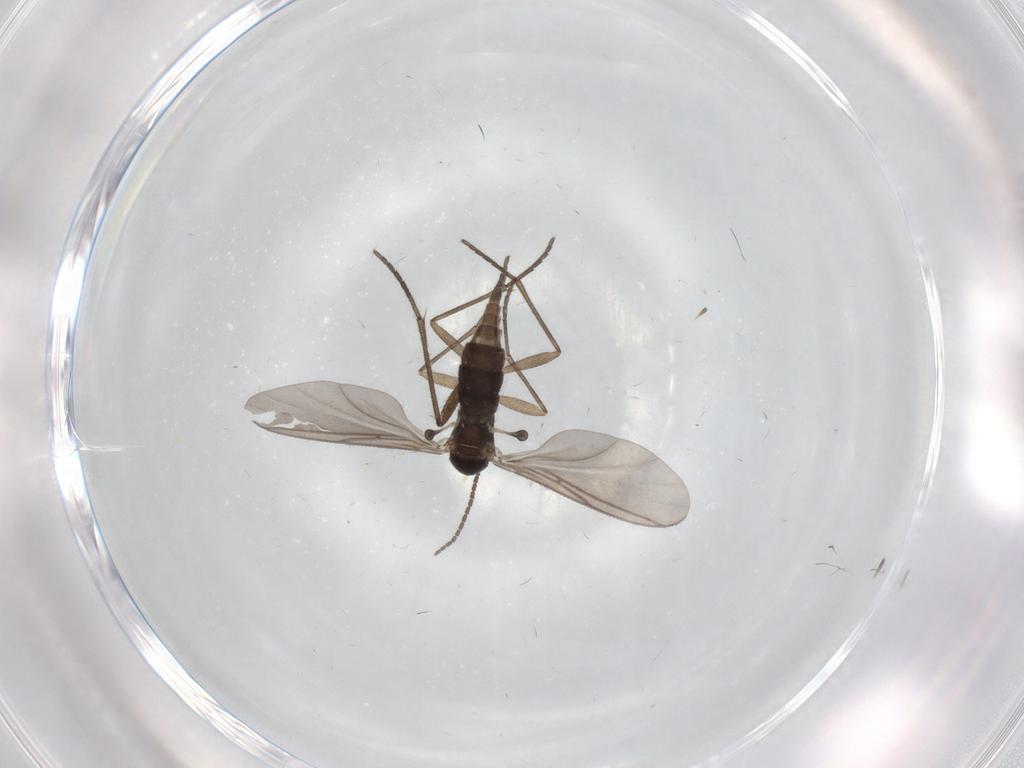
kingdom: Animalia
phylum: Arthropoda
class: Insecta
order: Diptera
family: Sciaridae
